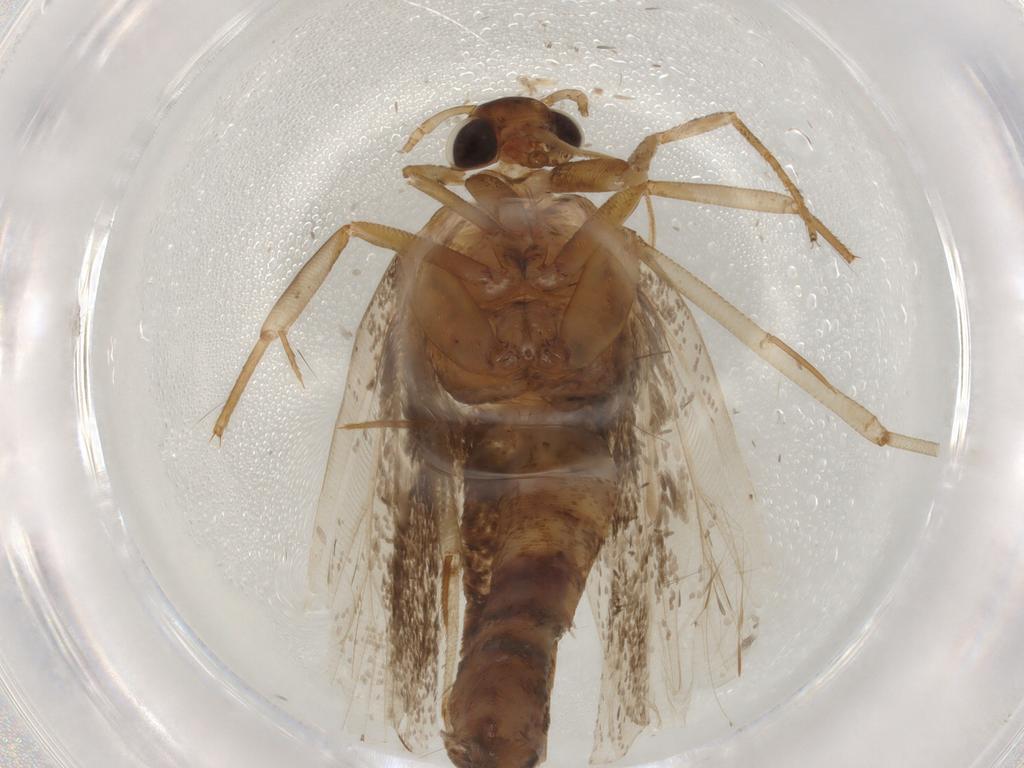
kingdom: Animalia
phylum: Arthropoda
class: Insecta
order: Lepidoptera
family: Gelechiidae
